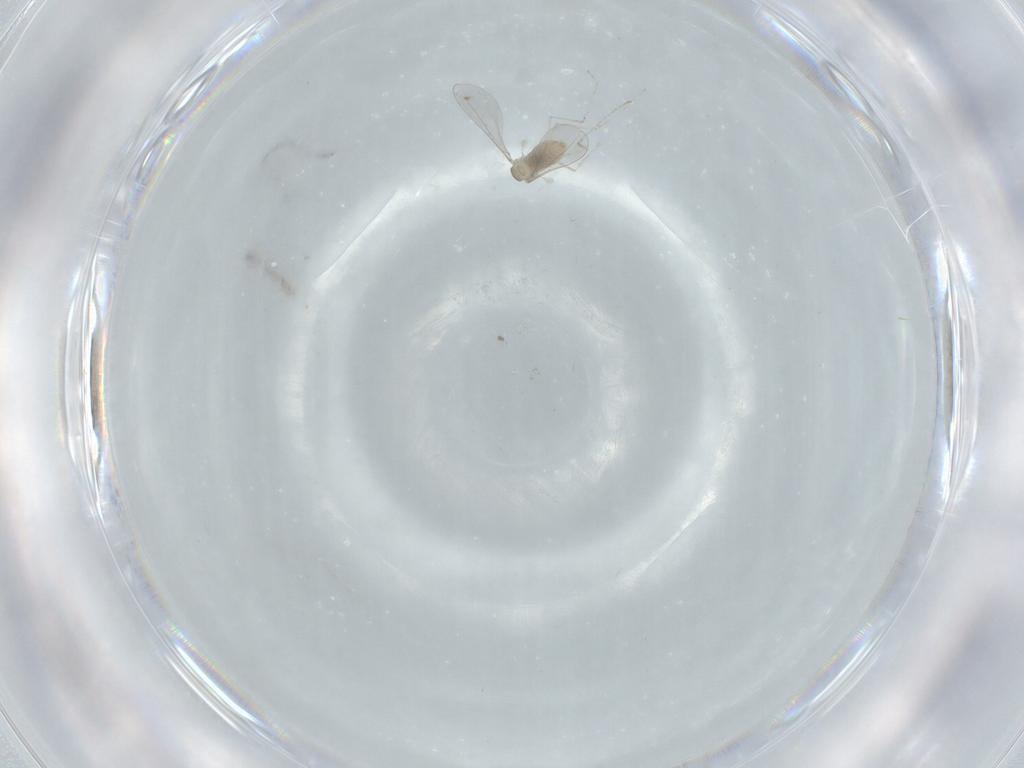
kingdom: Animalia
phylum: Arthropoda
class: Insecta
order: Diptera
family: Cecidomyiidae
